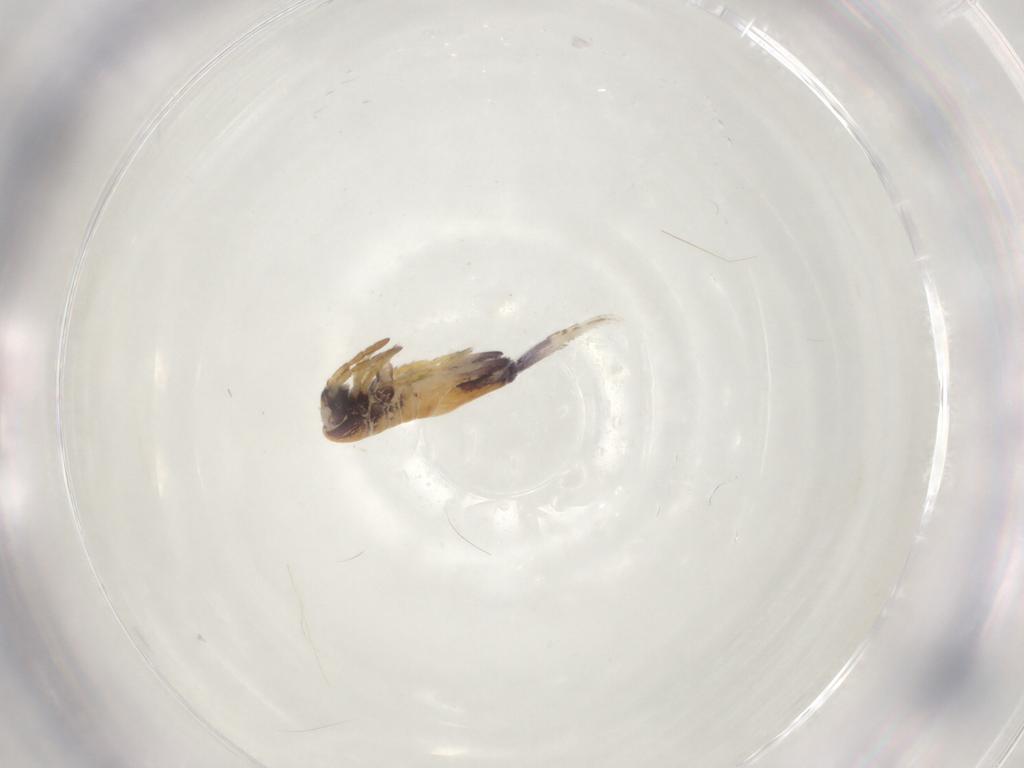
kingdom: Animalia
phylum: Arthropoda
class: Collembola
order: Entomobryomorpha
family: Entomobryidae
